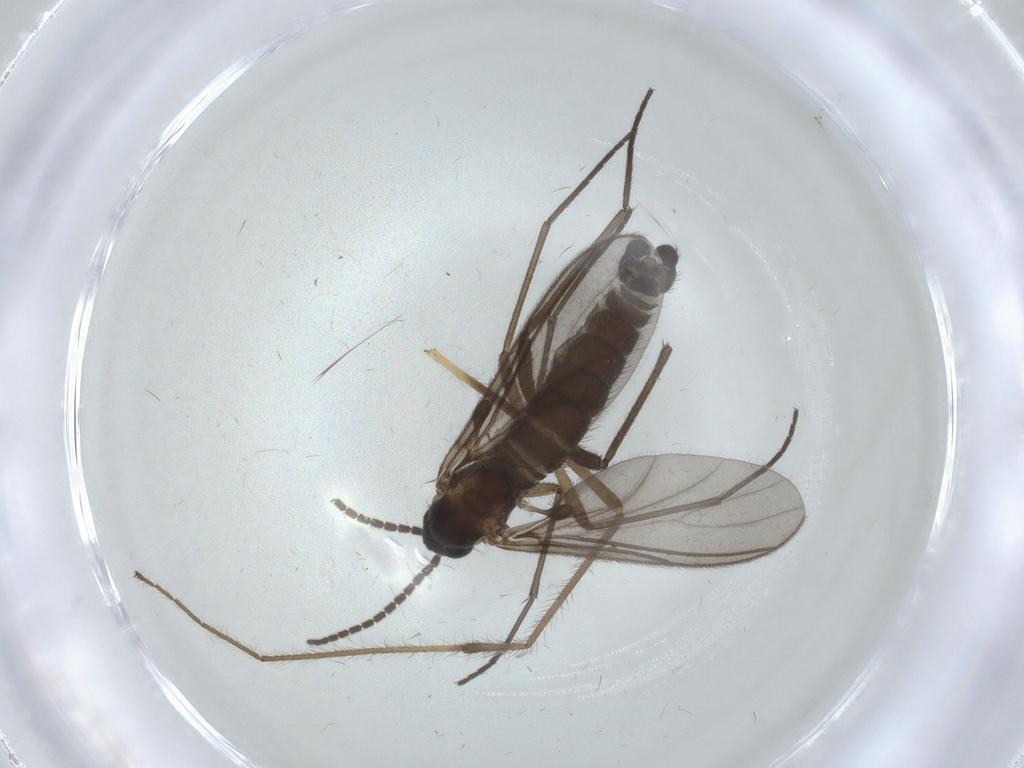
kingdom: Animalia
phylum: Arthropoda
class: Insecta
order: Diptera
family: Sciaridae
